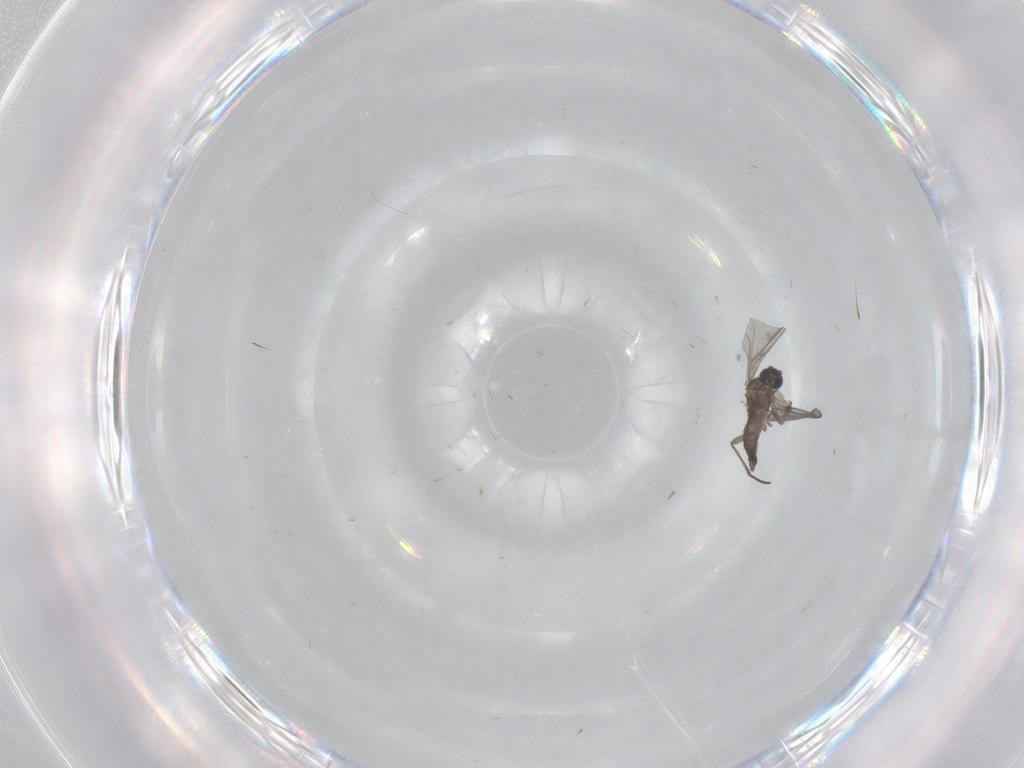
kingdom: Animalia
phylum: Arthropoda
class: Insecta
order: Diptera
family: Sciaridae
